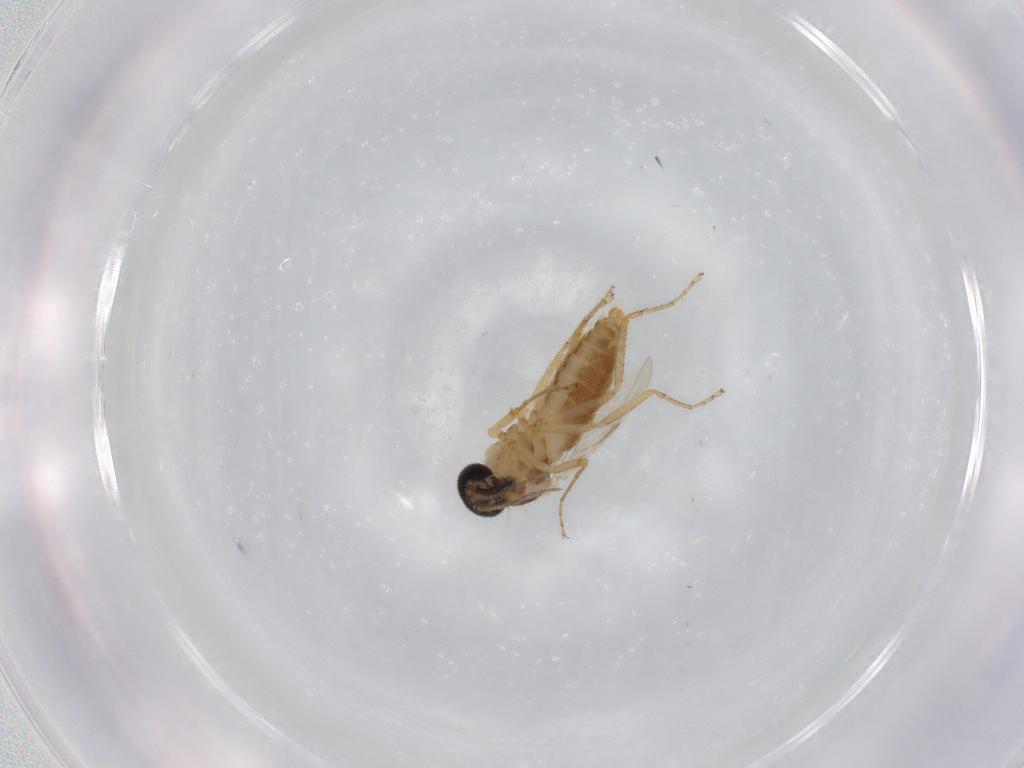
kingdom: Animalia
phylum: Arthropoda
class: Insecta
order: Diptera
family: Ceratopogonidae
